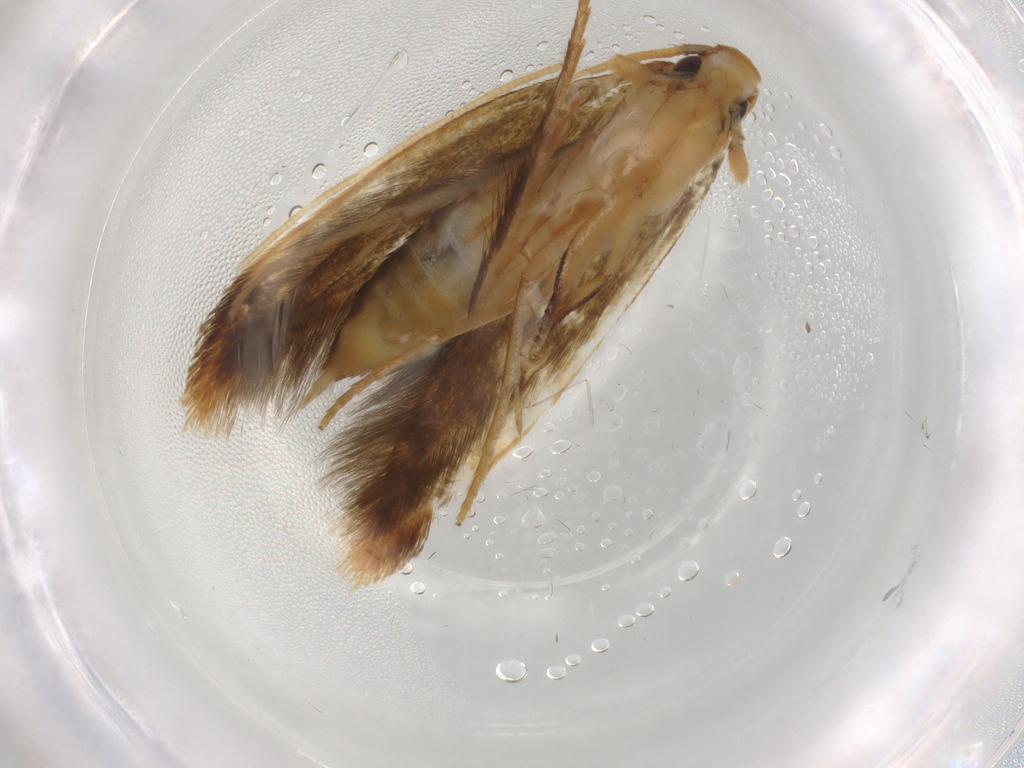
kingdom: Animalia
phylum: Arthropoda
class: Insecta
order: Lepidoptera
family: Tineidae
